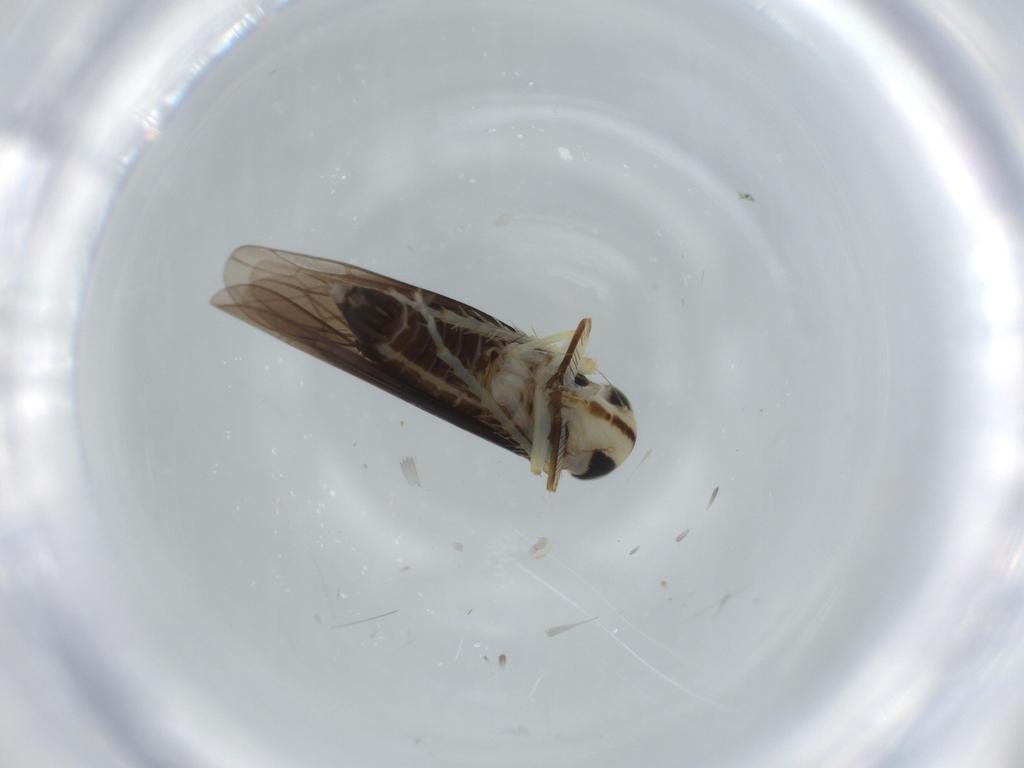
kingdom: Animalia
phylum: Arthropoda
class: Insecta
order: Hemiptera
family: Cicadellidae
